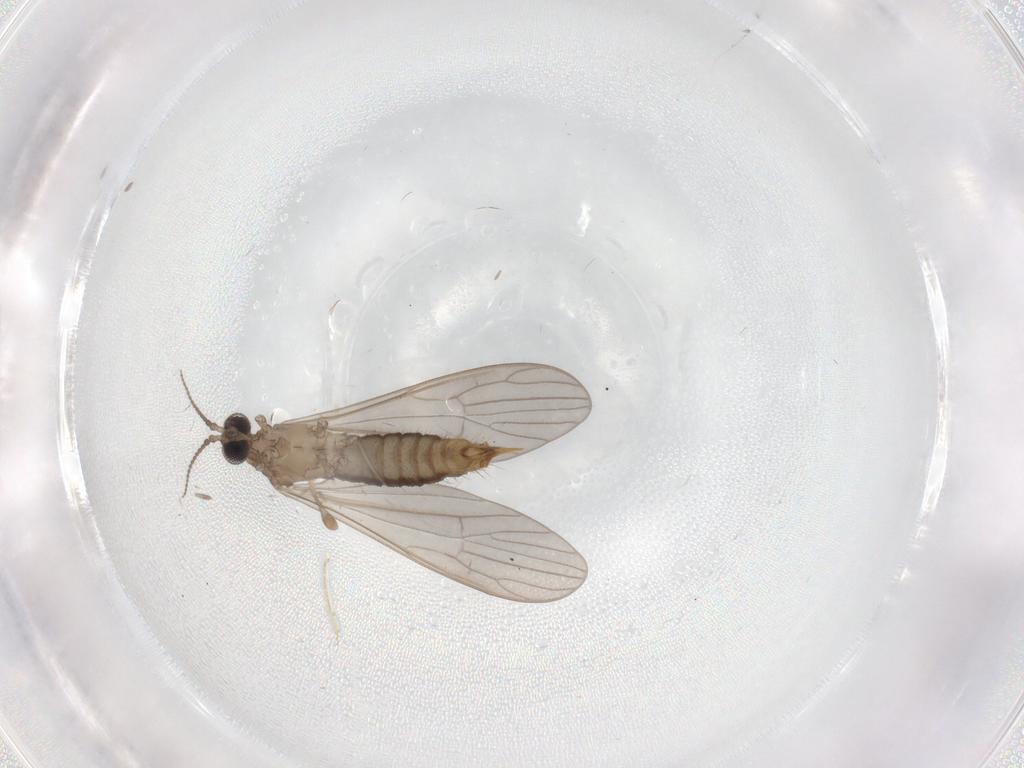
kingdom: Animalia
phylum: Arthropoda
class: Insecta
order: Diptera
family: Limoniidae
